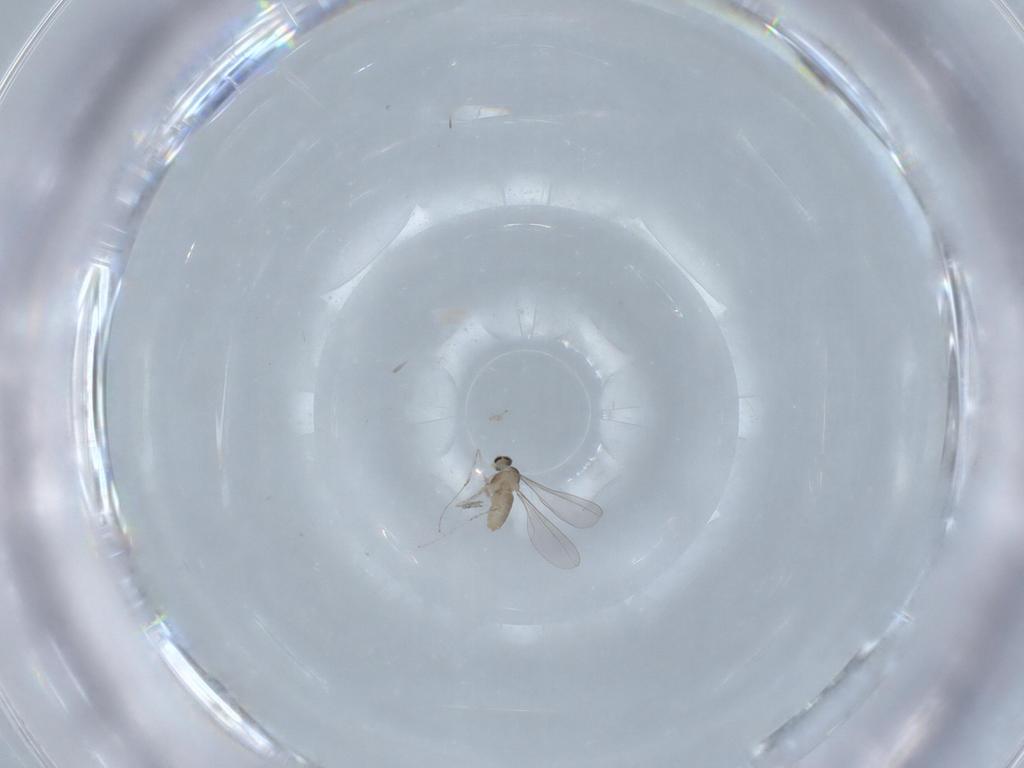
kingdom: Animalia
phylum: Arthropoda
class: Insecta
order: Diptera
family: Cecidomyiidae
